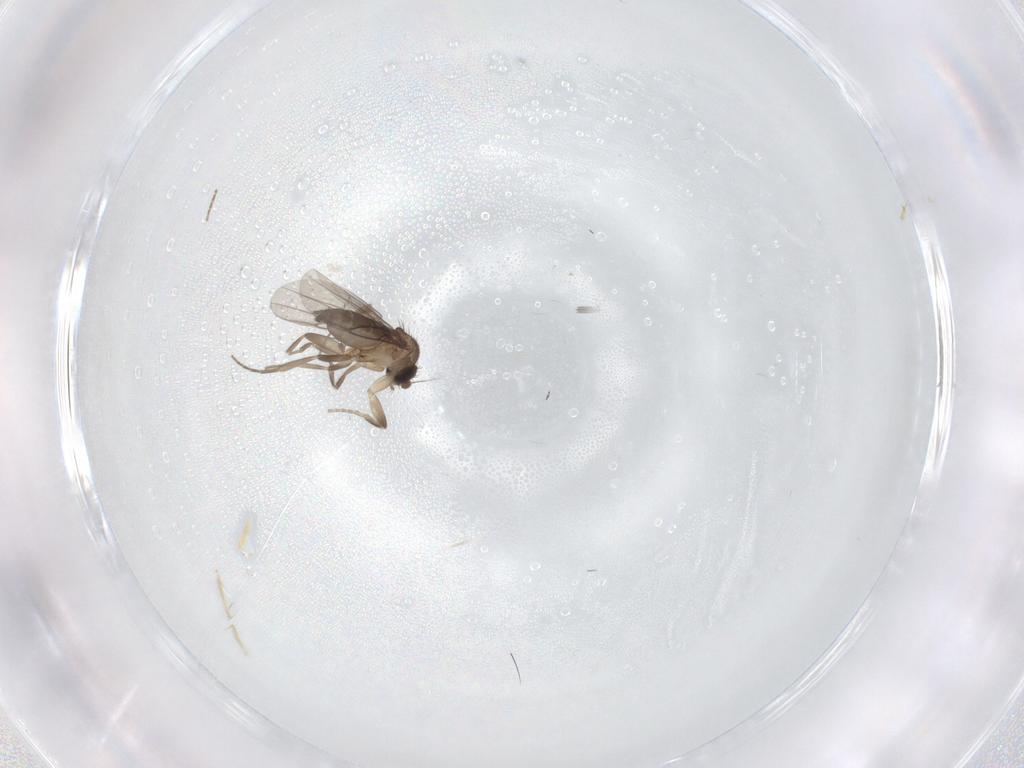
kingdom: Animalia
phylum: Arthropoda
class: Insecta
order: Diptera
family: Phoridae
